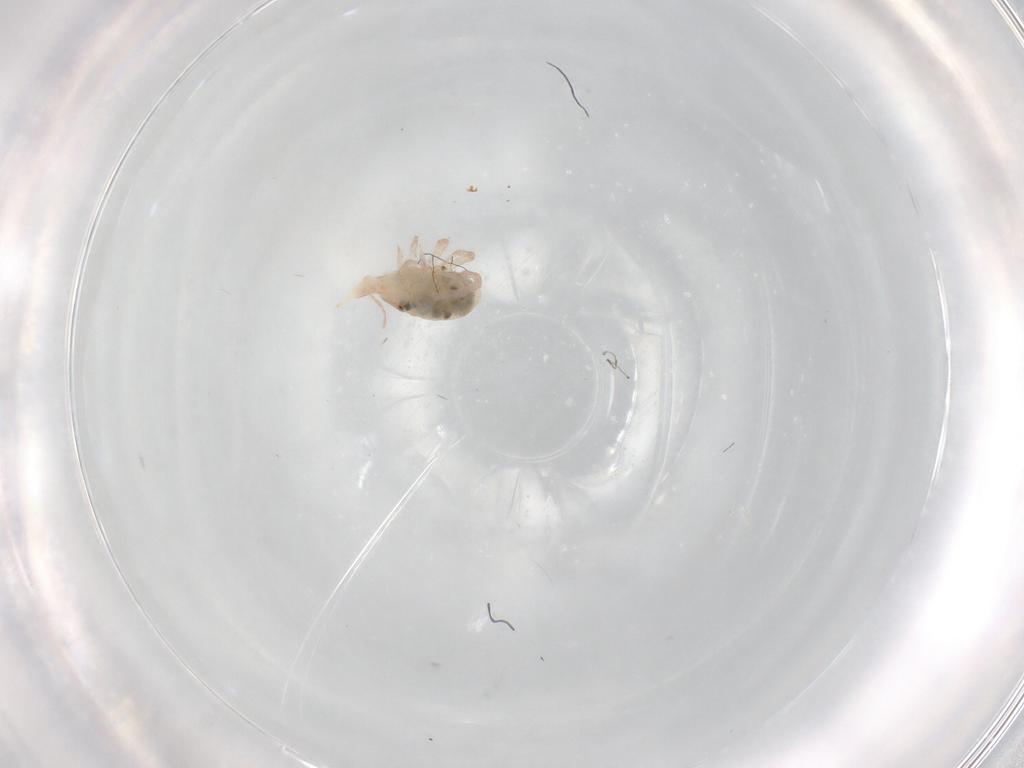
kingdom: Animalia
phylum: Arthropoda
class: Arachnida
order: Trombidiformes
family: Bdellidae
